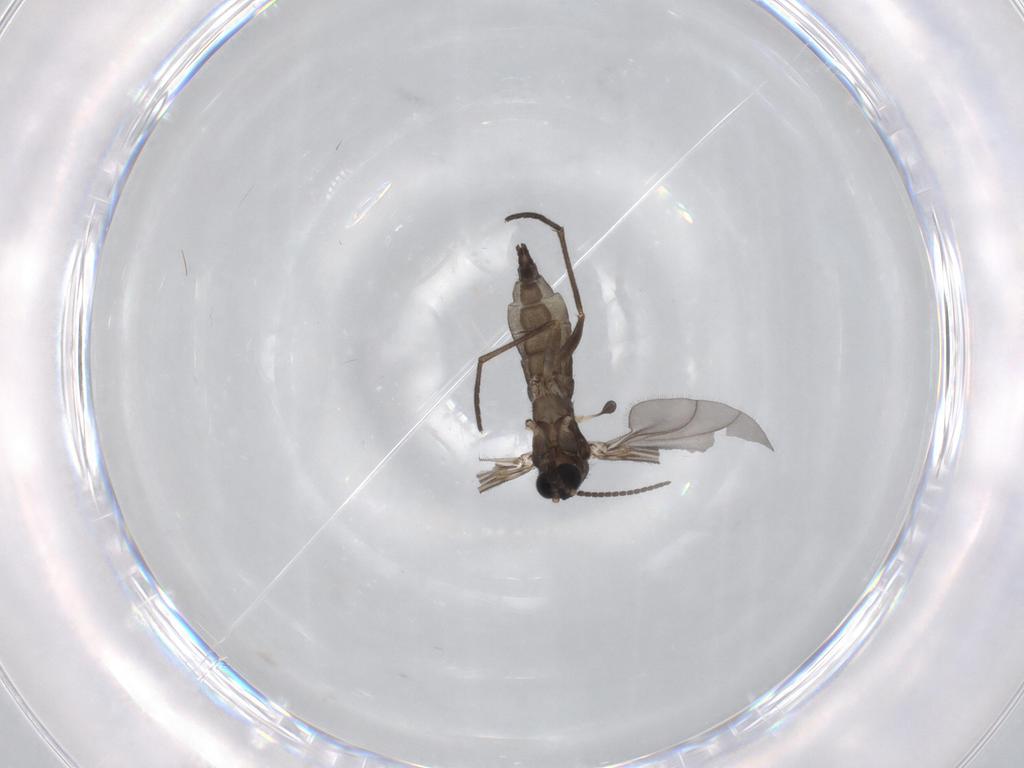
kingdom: Animalia
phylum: Arthropoda
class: Insecta
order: Diptera
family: Sciaridae
